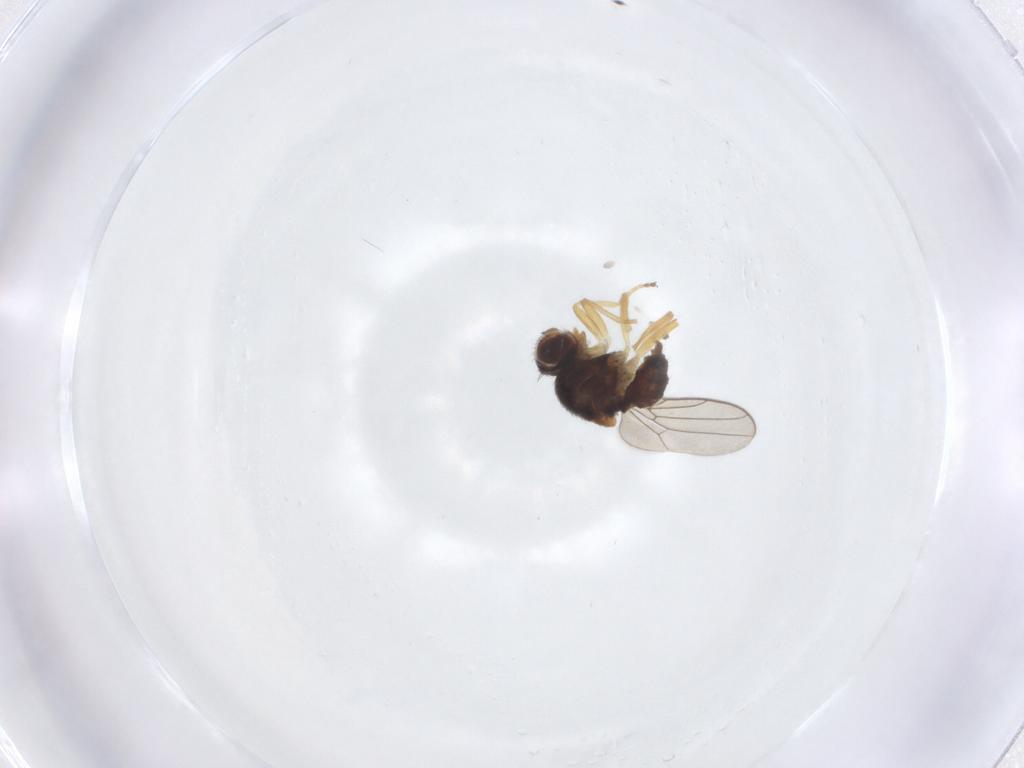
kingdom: Animalia
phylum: Arthropoda
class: Insecta
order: Diptera
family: Chloropidae
